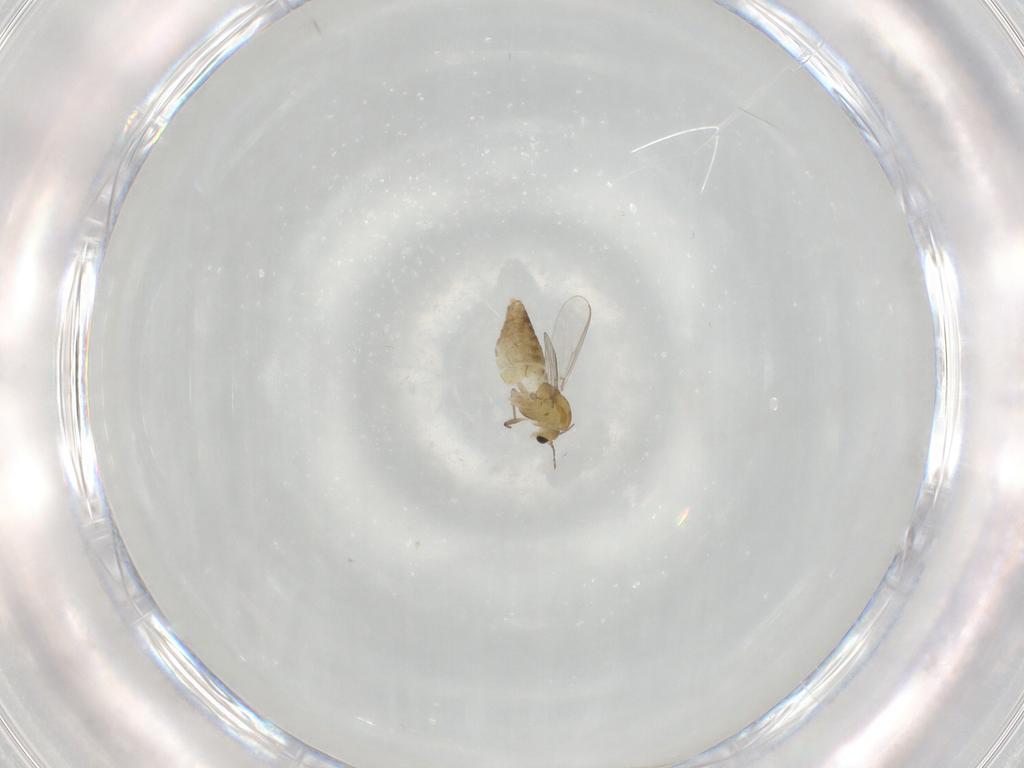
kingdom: Animalia
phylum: Arthropoda
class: Insecta
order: Diptera
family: Chironomidae
